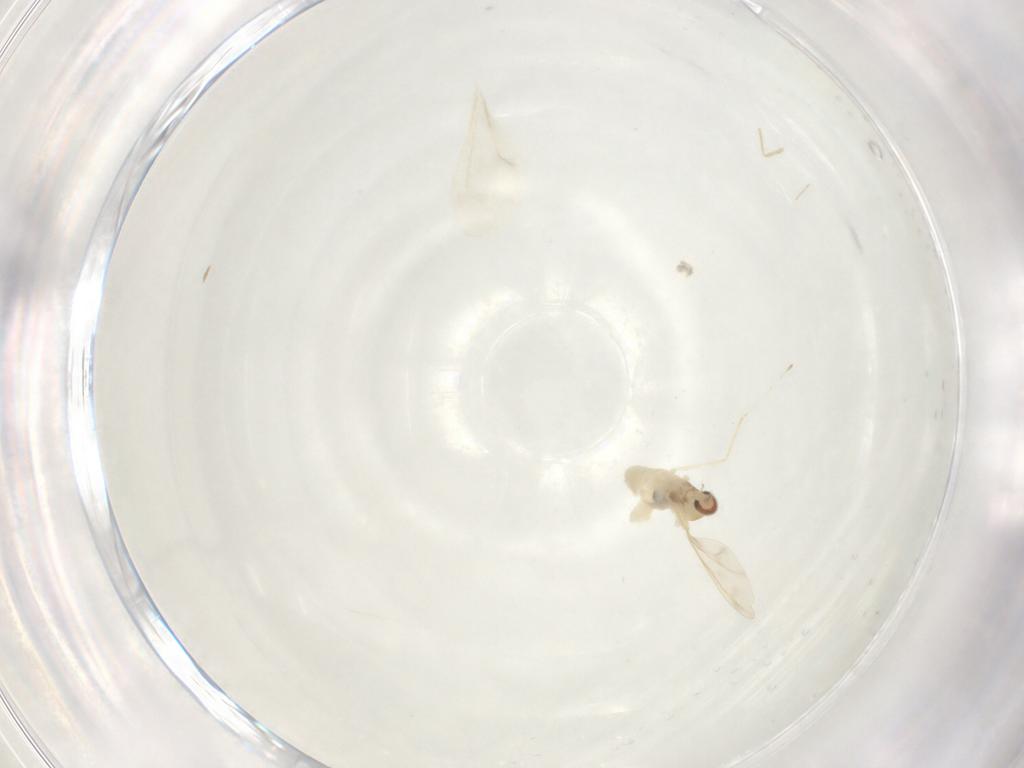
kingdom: Animalia
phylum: Arthropoda
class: Insecta
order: Diptera
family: Cecidomyiidae
